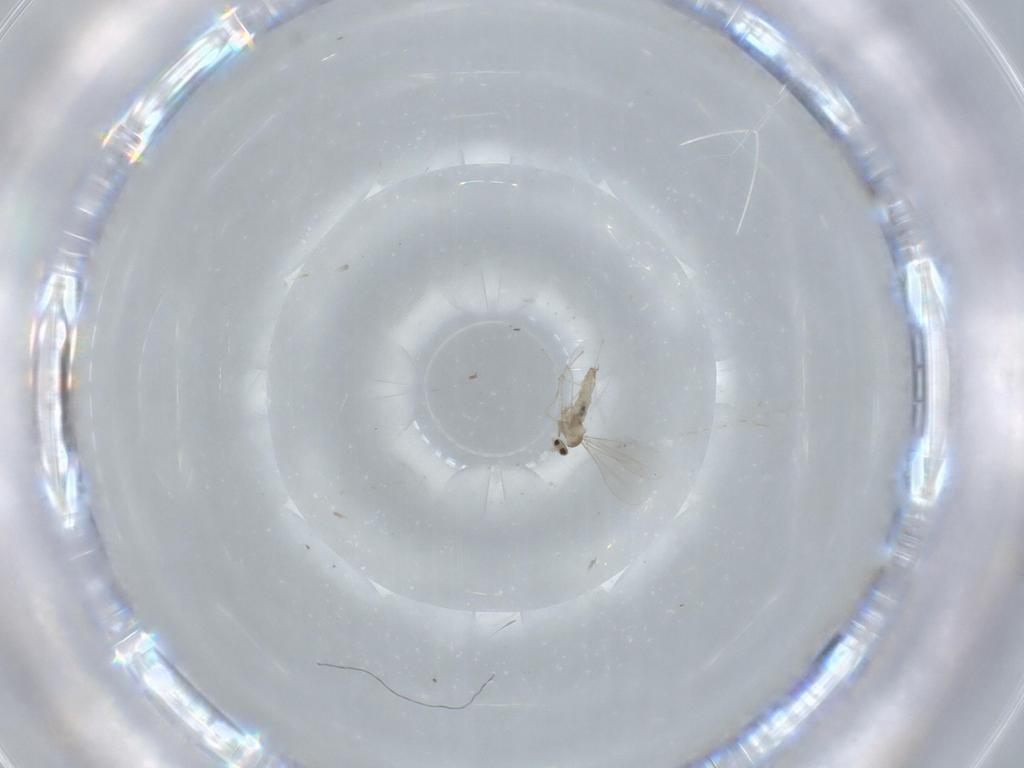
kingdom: Animalia
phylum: Arthropoda
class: Insecta
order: Diptera
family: Cecidomyiidae
